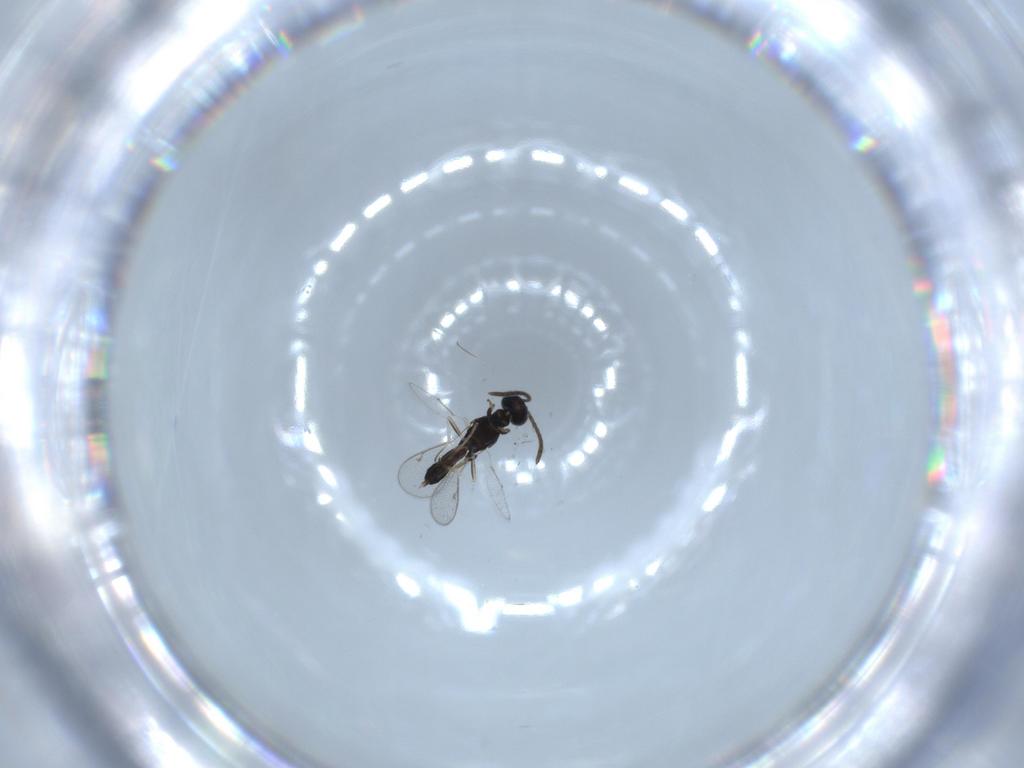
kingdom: Animalia
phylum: Arthropoda
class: Insecta
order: Hymenoptera
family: Eupelmidae
